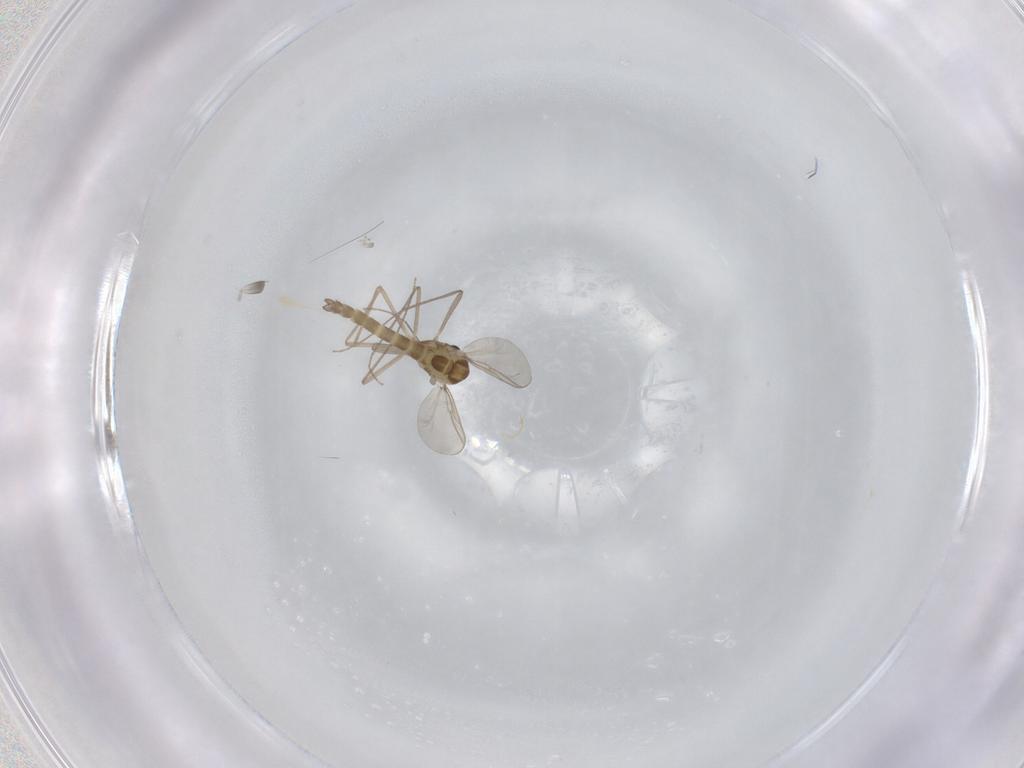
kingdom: Animalia
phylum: Arthropoda
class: Insecta
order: Diptera
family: Chironomidae
